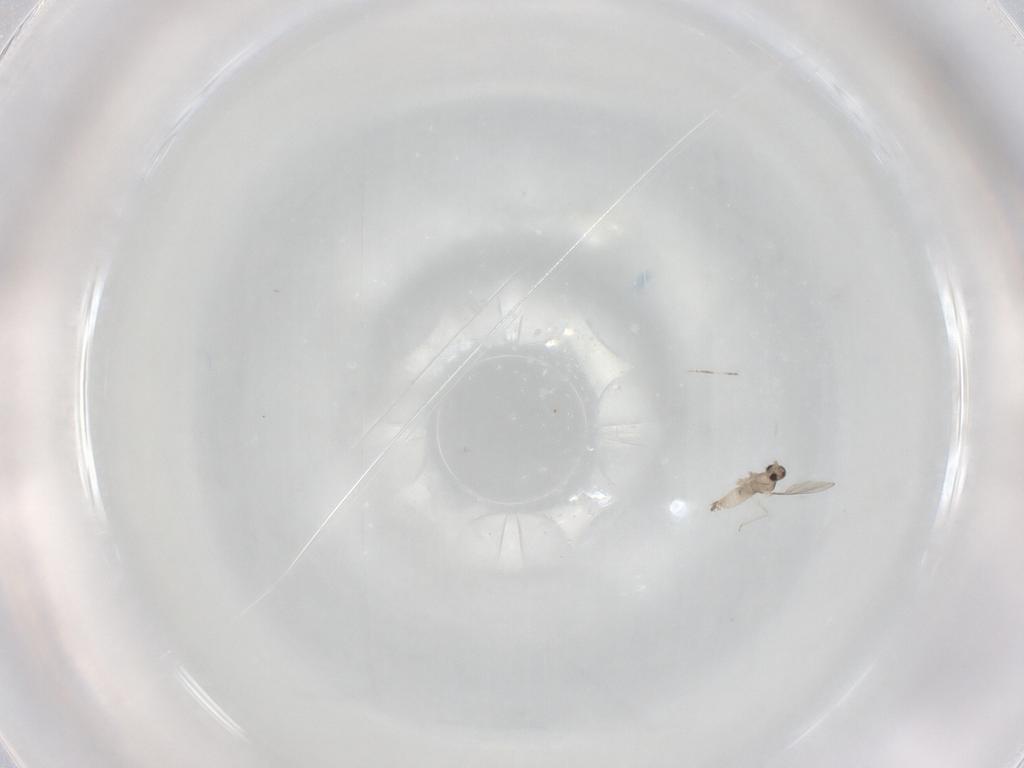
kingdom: Animalia
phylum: Arthropoda
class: Insecta
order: Diptera
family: Cecidomyiidae
